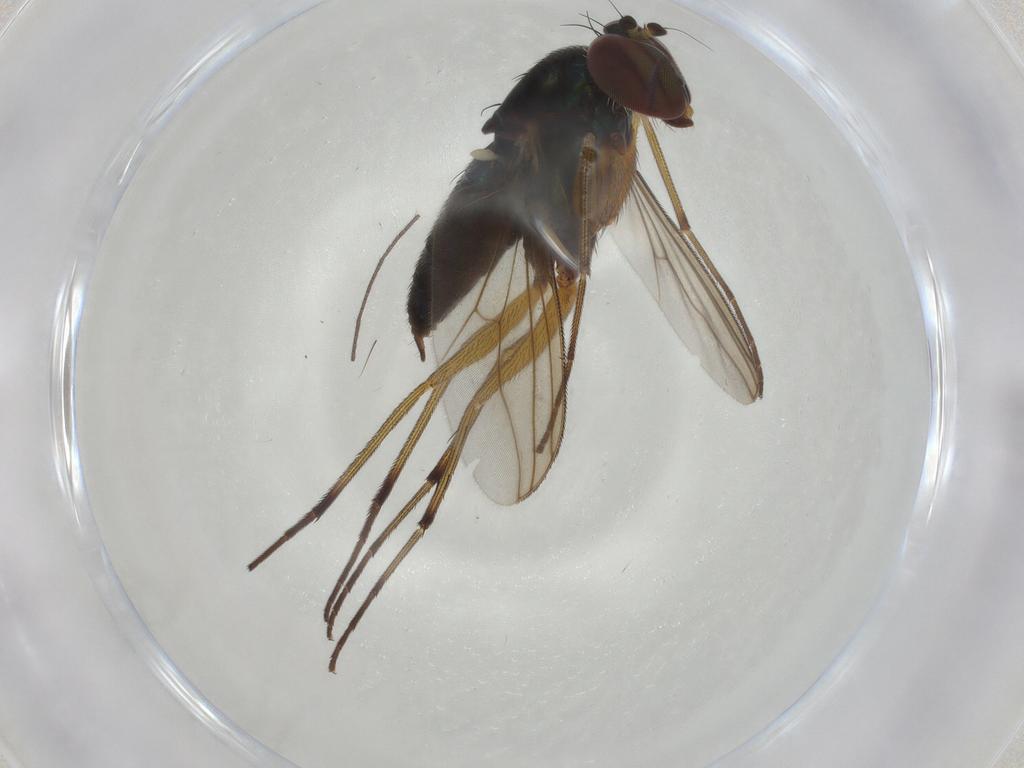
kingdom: Animalia
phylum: Arthropoda
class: Insecta
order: Diptera
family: Dolichopodidae
